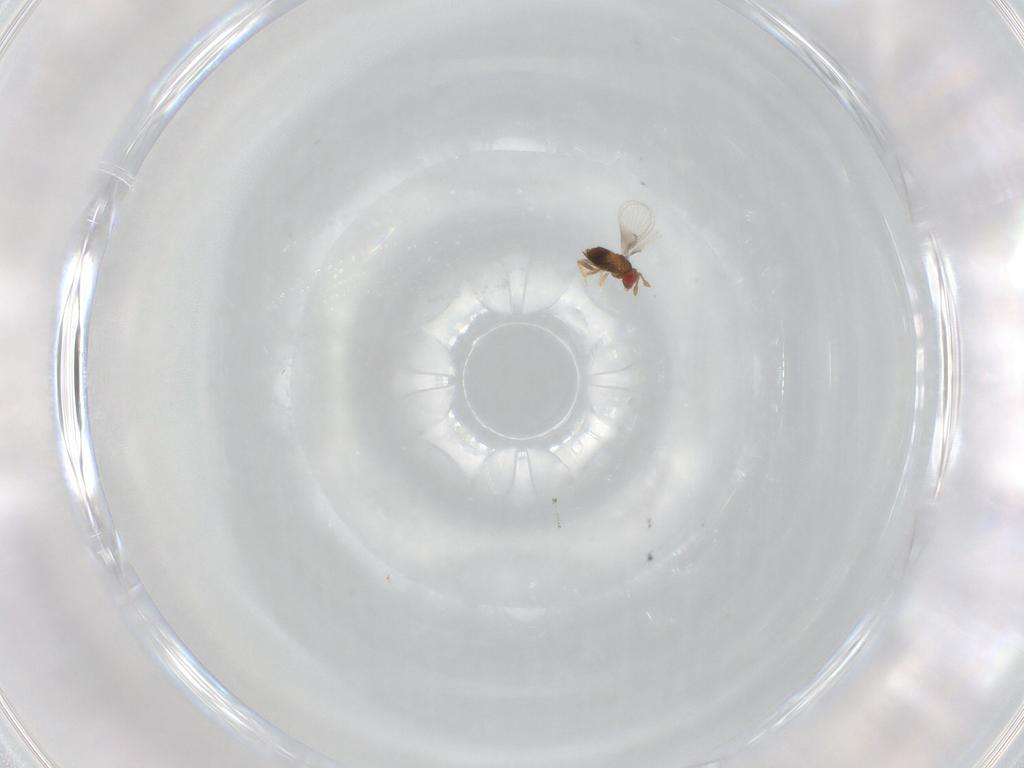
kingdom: Animalia
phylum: Arthropoda
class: Insecta
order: Hymenoptera
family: Trichogrammatidae
